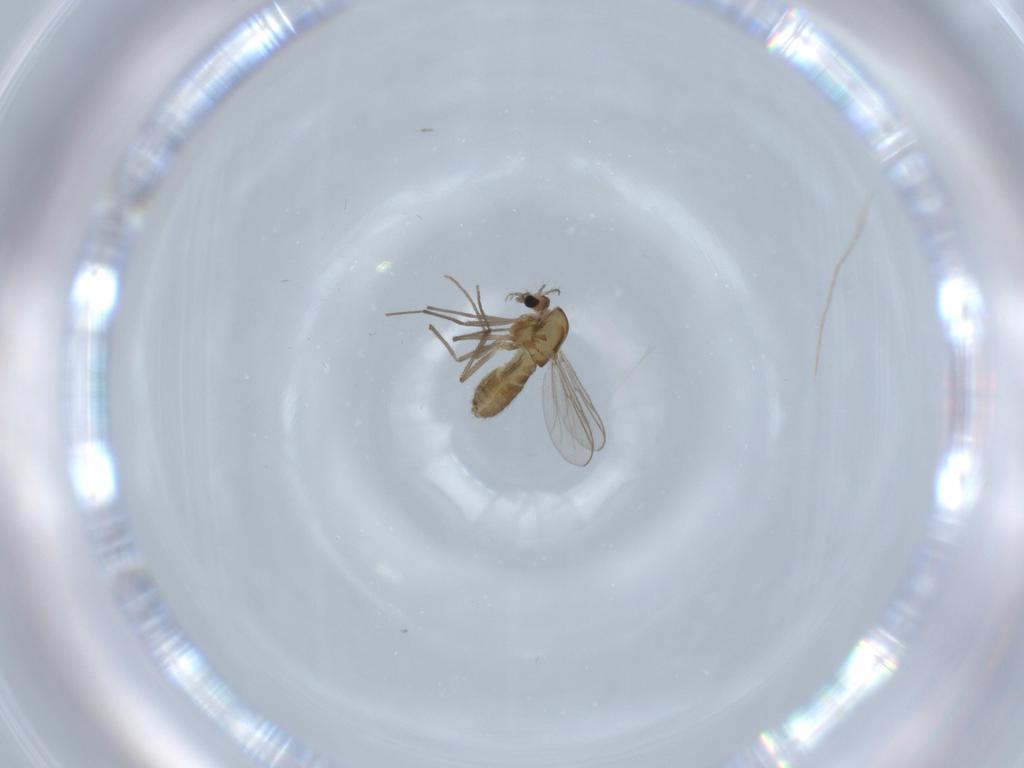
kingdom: Animalia
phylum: Arthropoda
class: Insecta
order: Diptera
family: Chironomidae
